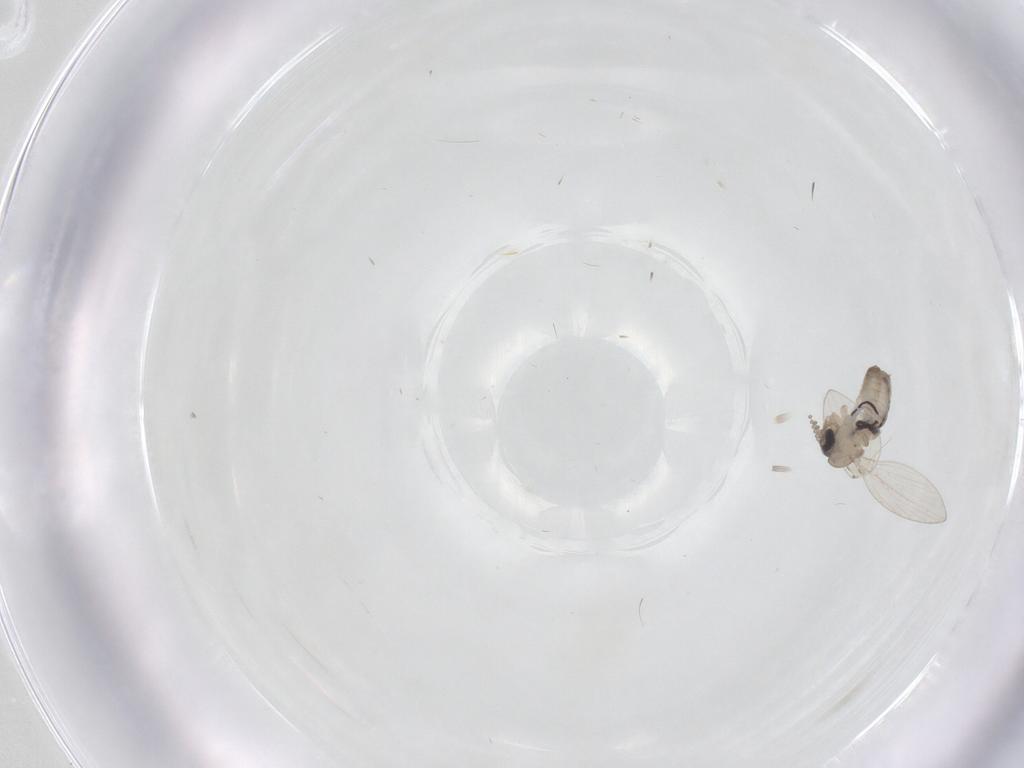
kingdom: Animalia
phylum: Arthropoda
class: Insecta
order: Diptera
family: Psychodidae
